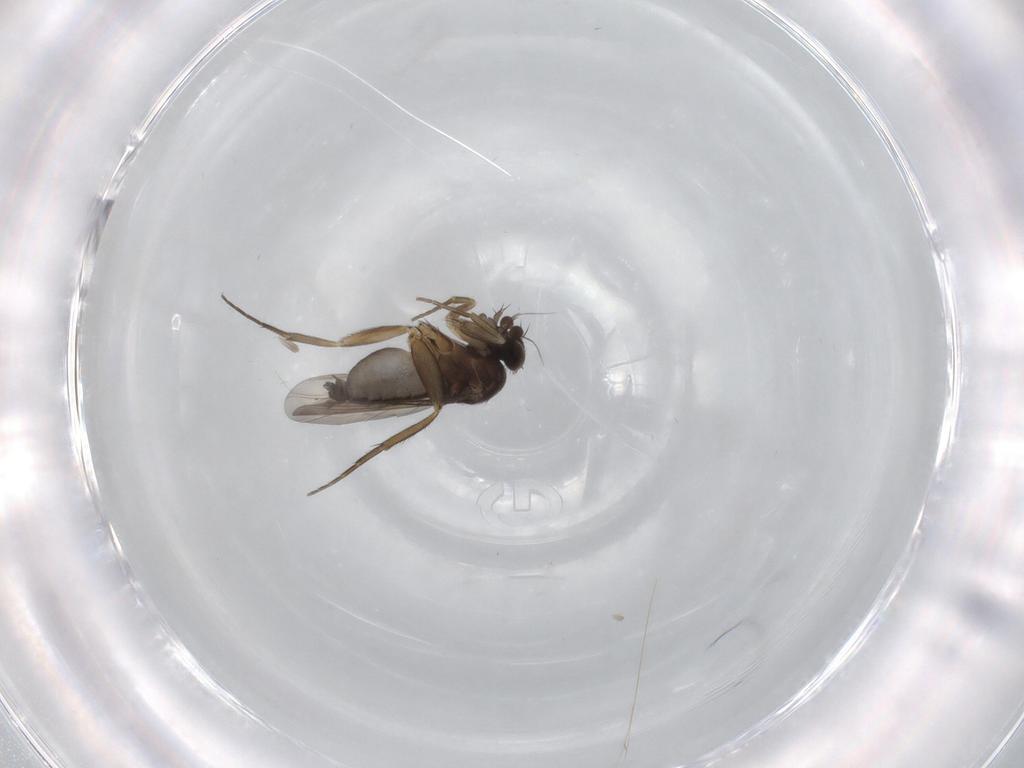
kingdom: Animalia
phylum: Arthropoda
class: Insecta
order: Diptera
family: Phoridae
